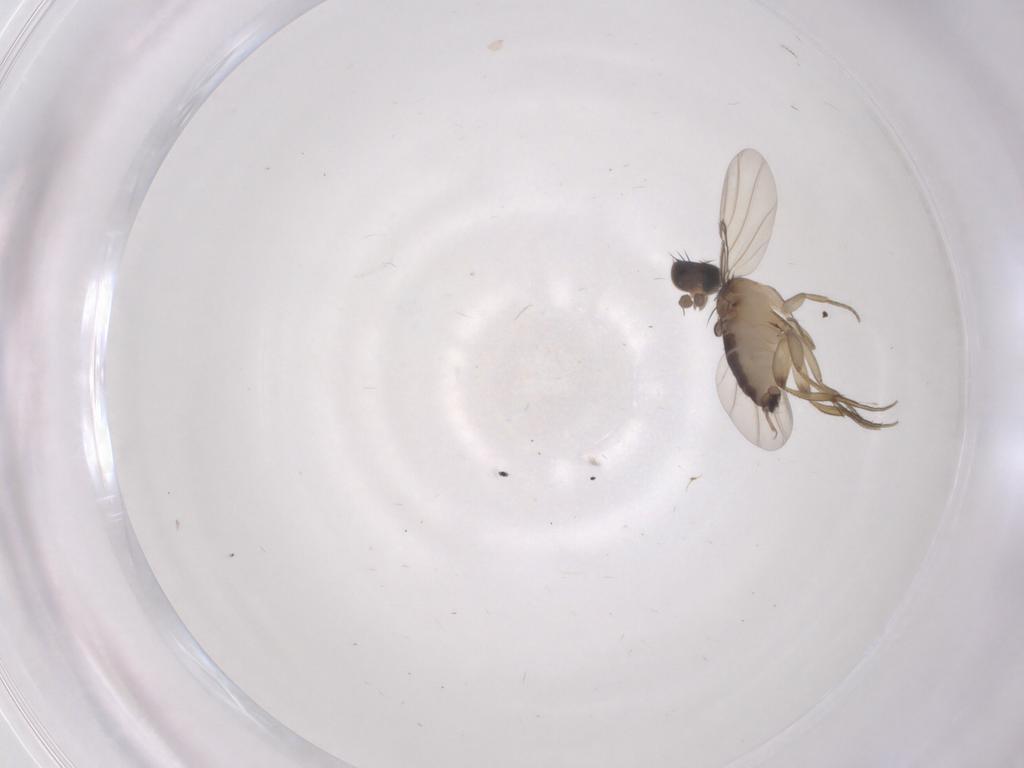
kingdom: Animalia
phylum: Arthropoda
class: Insecta
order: Diptera
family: Phoridae
